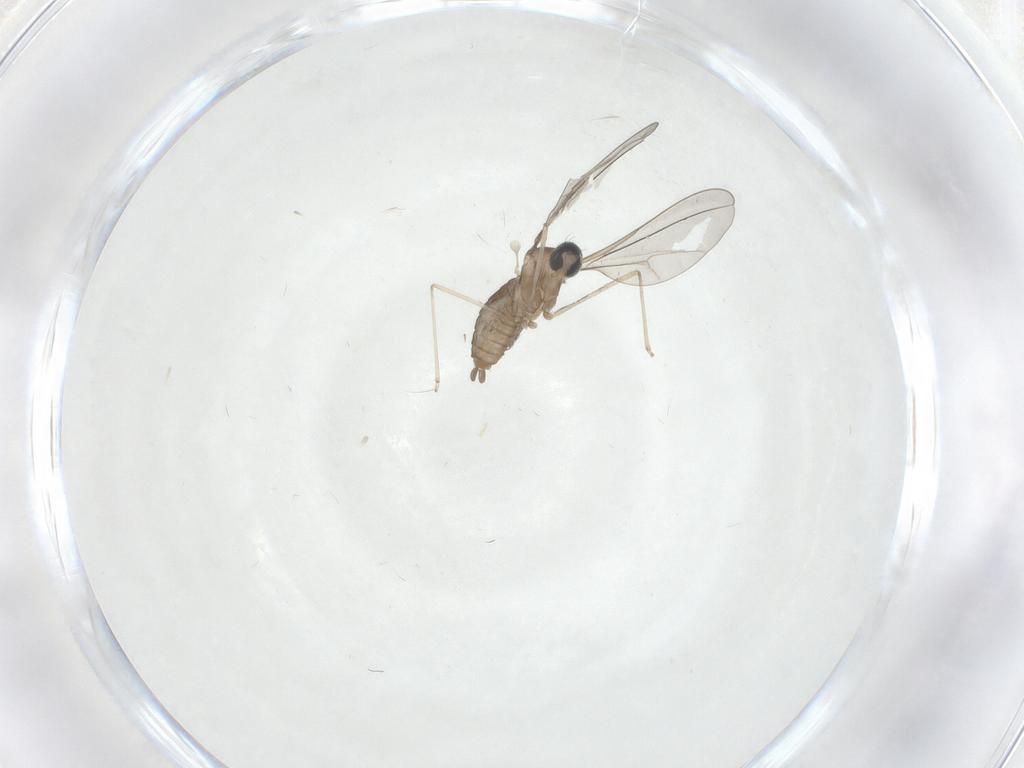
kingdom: Animalia
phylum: Arthropoda
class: Insecta
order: Diptera
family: Cecidomyiidae
